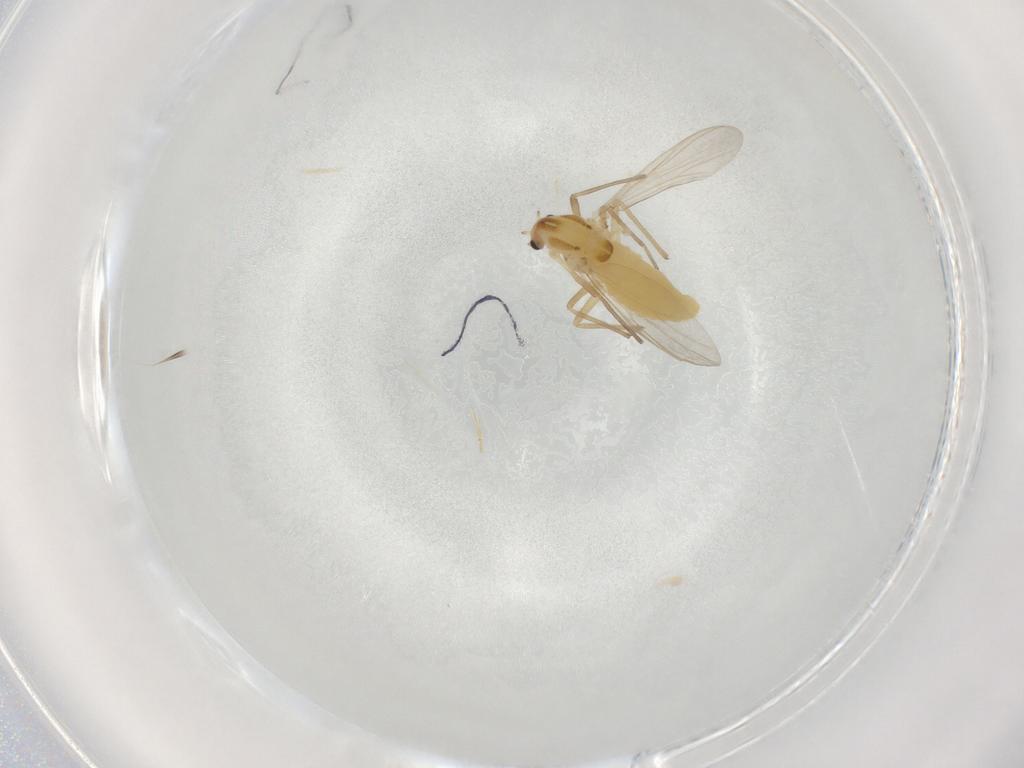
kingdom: Animalia
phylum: Arthropoda
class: Insecta
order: Diptera
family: Chironomidae
